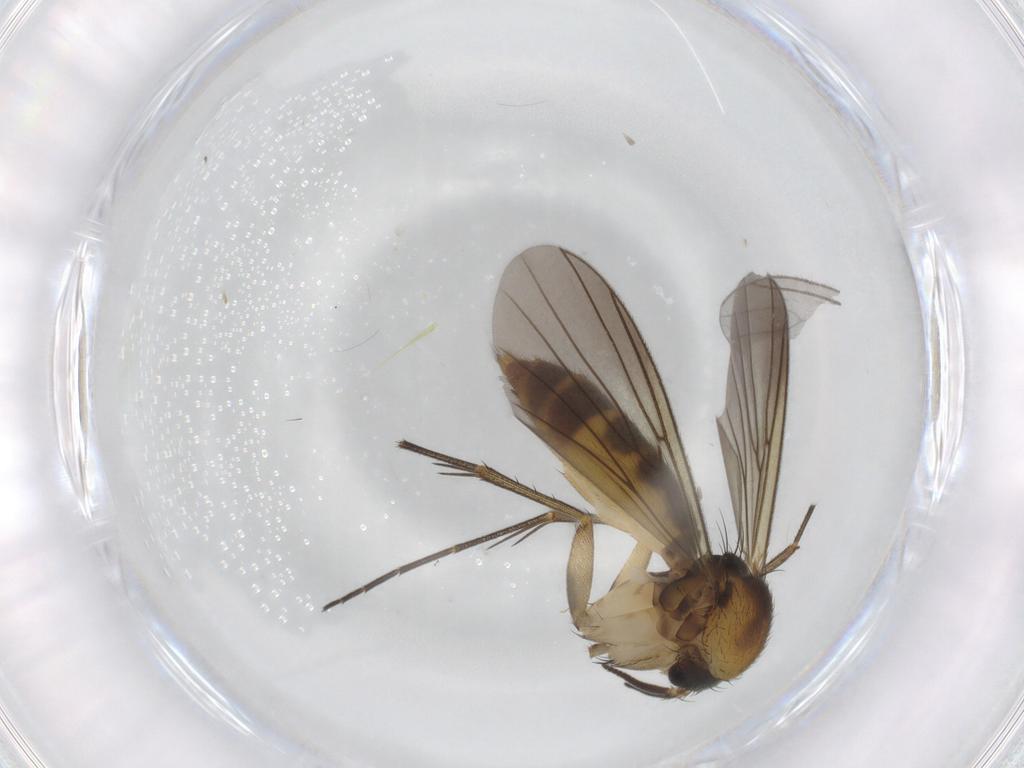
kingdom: Animalia
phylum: Arthropoda
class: Insecta
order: Diptera
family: Mycetophilidae
